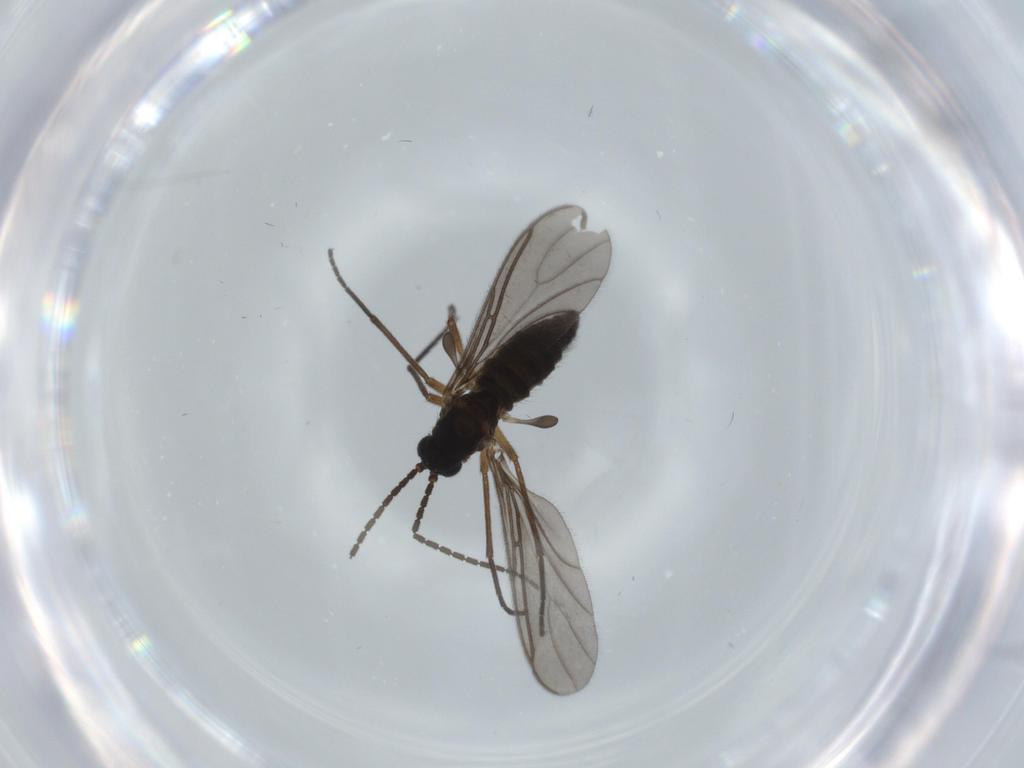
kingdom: Animalia
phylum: Arthropoda
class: Insecta
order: Diptera
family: Sciaridae
